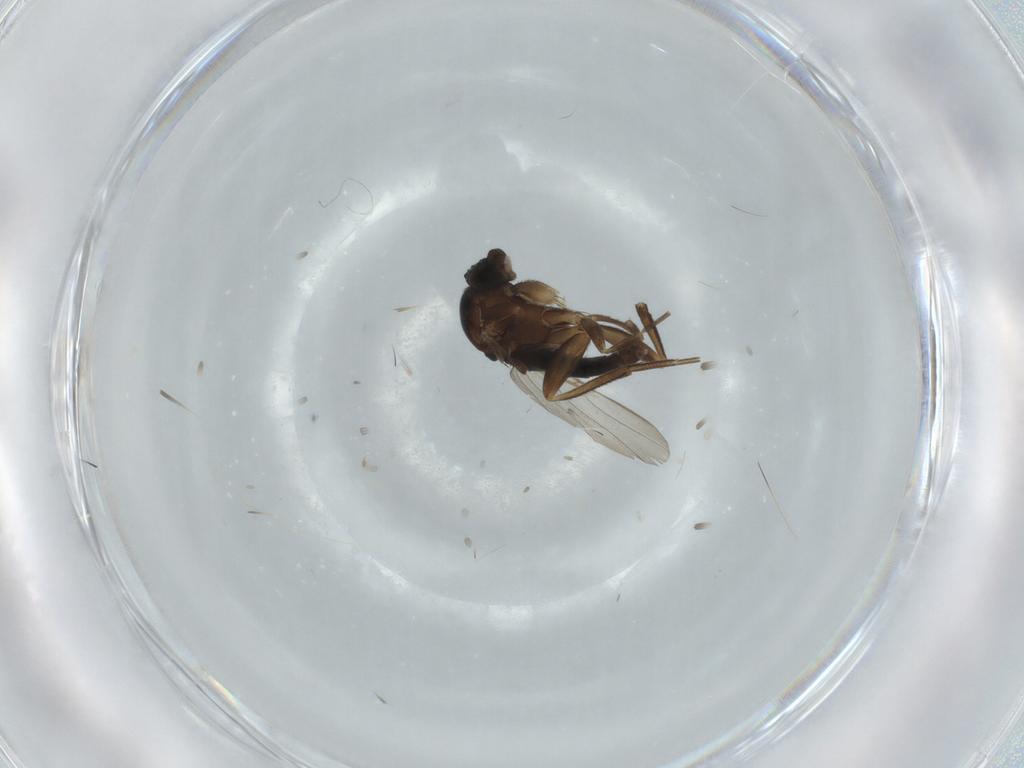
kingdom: Animalia
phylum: Arthropoda
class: Insecta
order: Diptera
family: Phoridae
